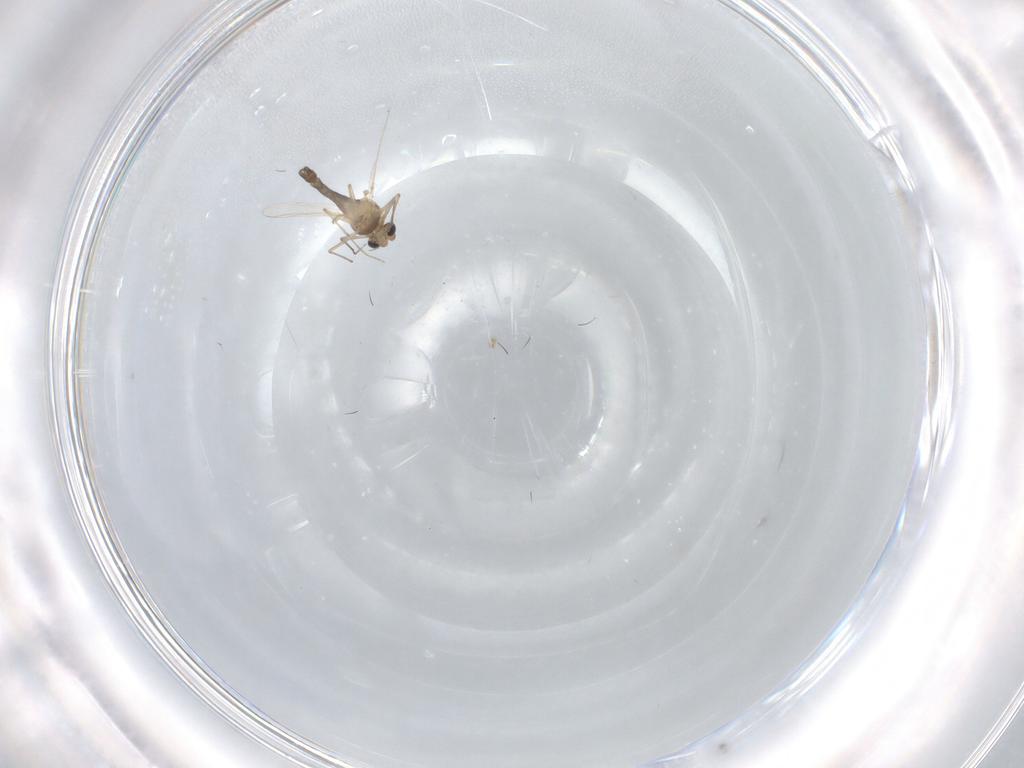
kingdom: Animalia
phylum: Arthropoda
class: Insecta
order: Diptera
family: Chironomidae
